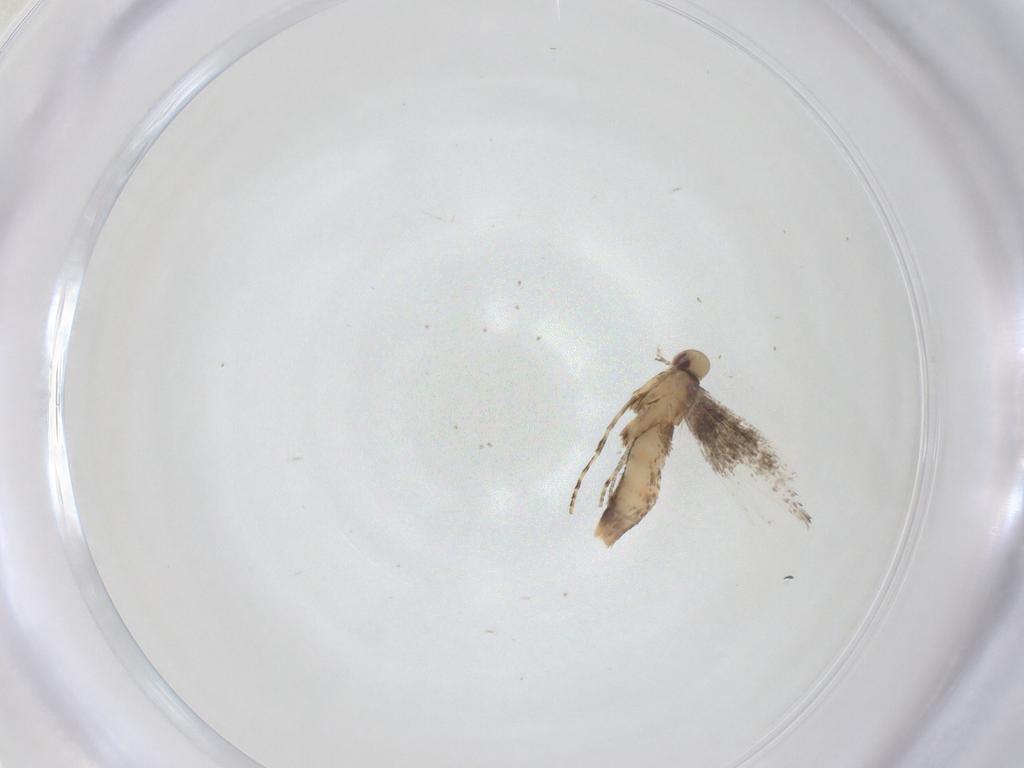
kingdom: Animalia
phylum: Arthropoda
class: Insecta
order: Lepidoptera
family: Gracillariidae
